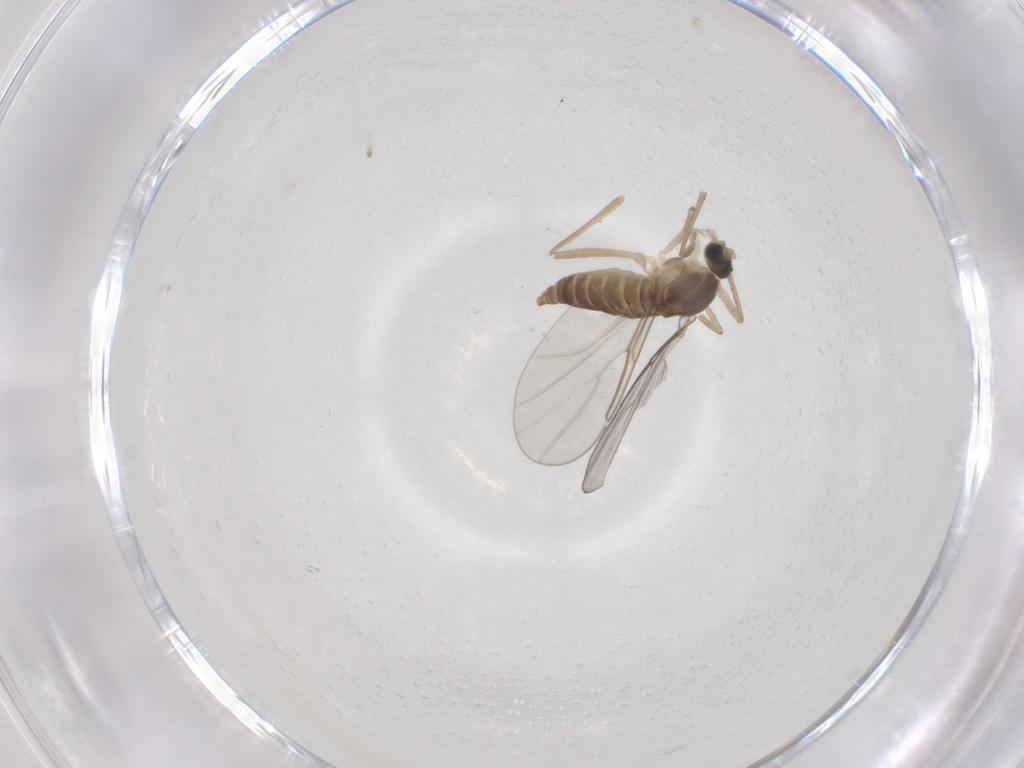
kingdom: Animalia
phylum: Arthropoda
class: Insecta
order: Diptera
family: Cecidomyiidae
